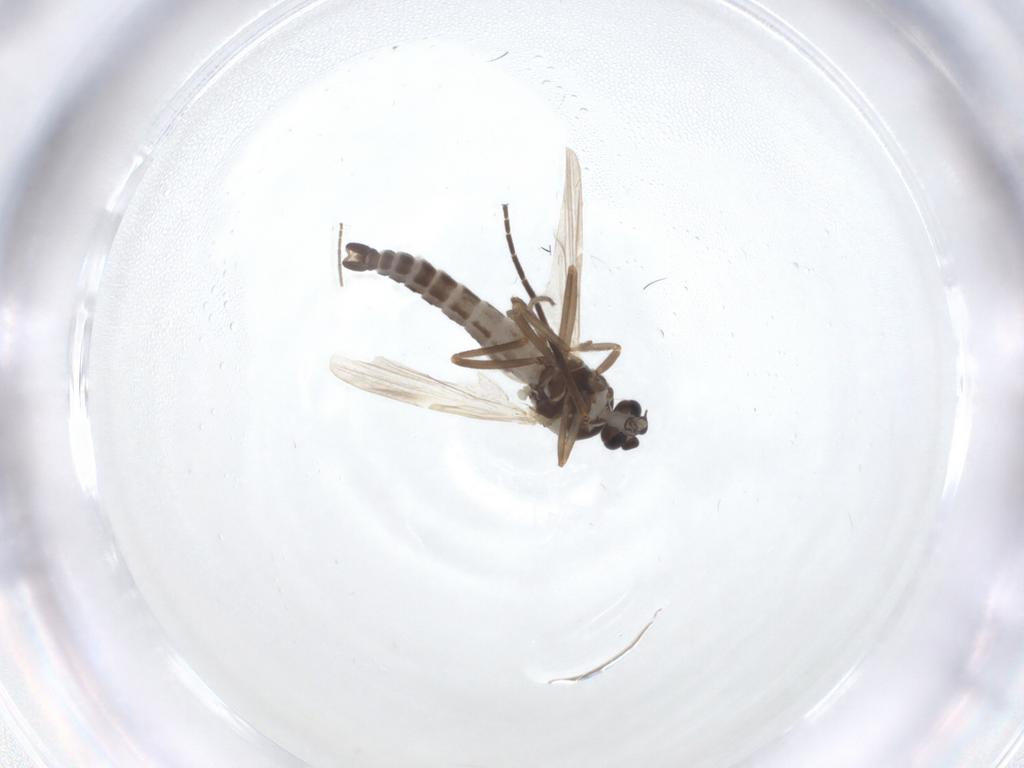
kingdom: Animalia
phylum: Arthropoda
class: Insecta
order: Diptera
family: Ceratopogonidae
